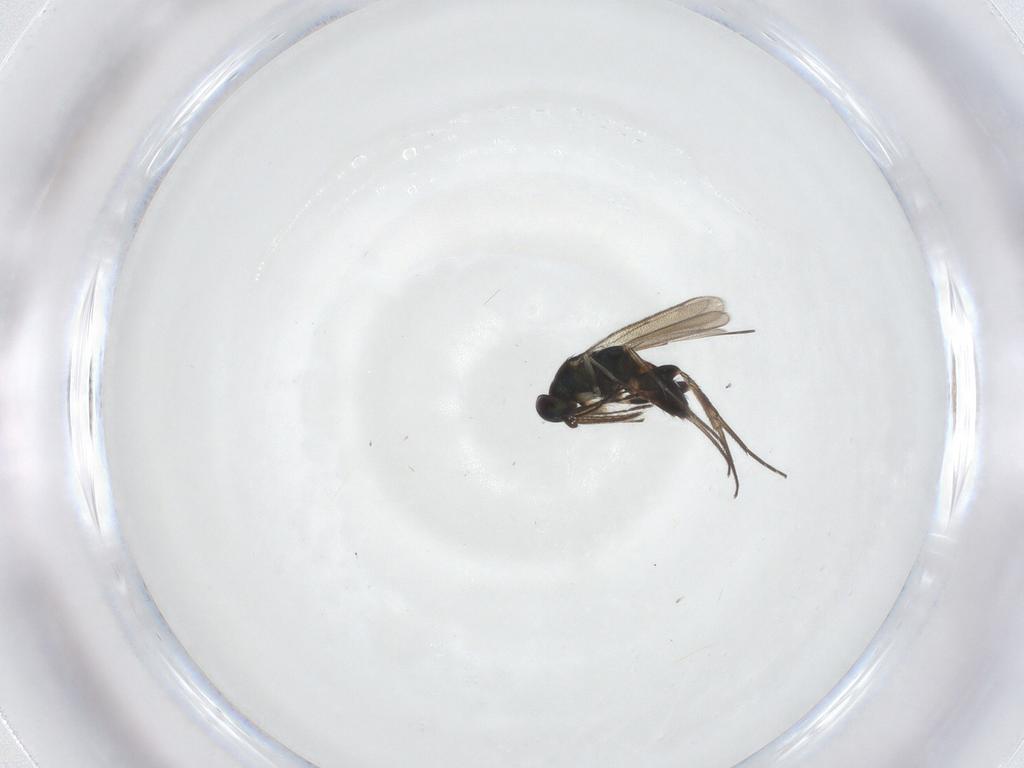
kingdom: Animalia
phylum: Arthropoda
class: Insecta
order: Hymenoptera
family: Eulophidae
